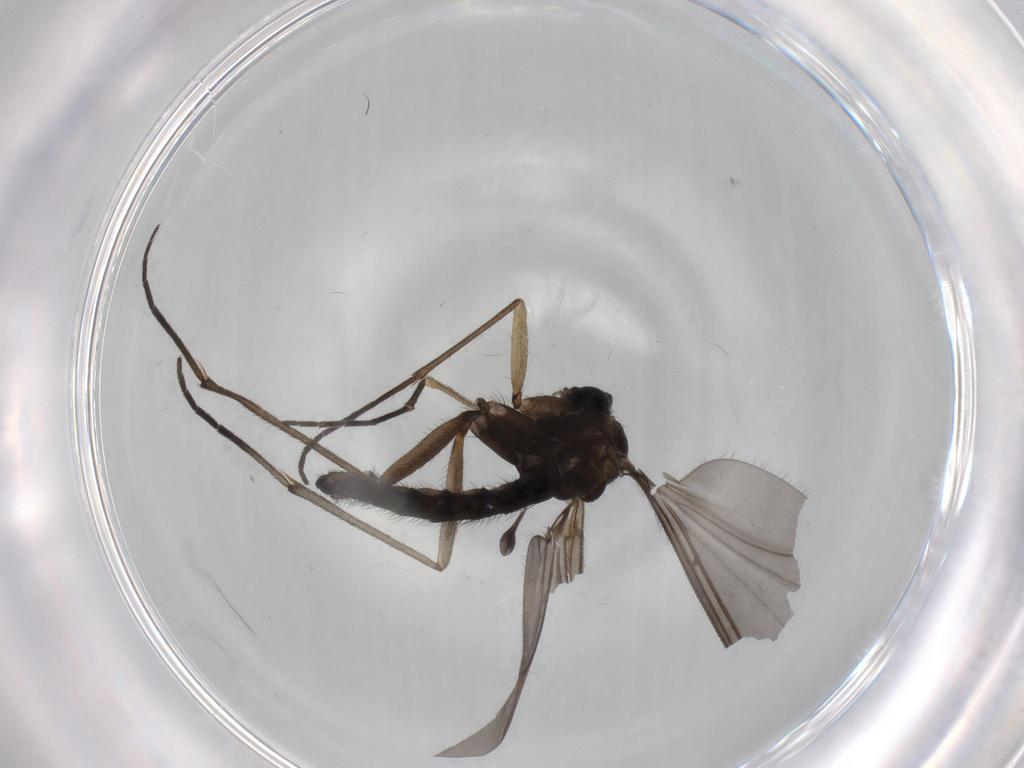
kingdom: Animalia
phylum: Arthropoda
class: Insecta
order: Diptera
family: Sciaridae
